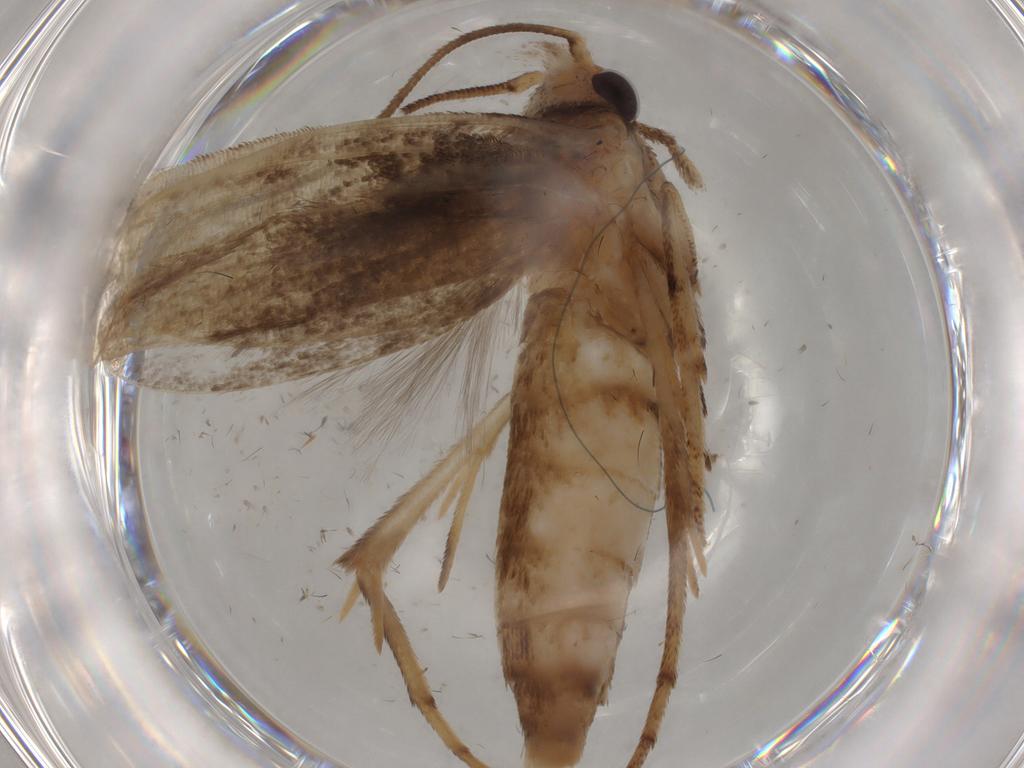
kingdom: Animalia
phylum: Arthropoda
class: Insecta
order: Lepidoptera
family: Yponomeutidae
